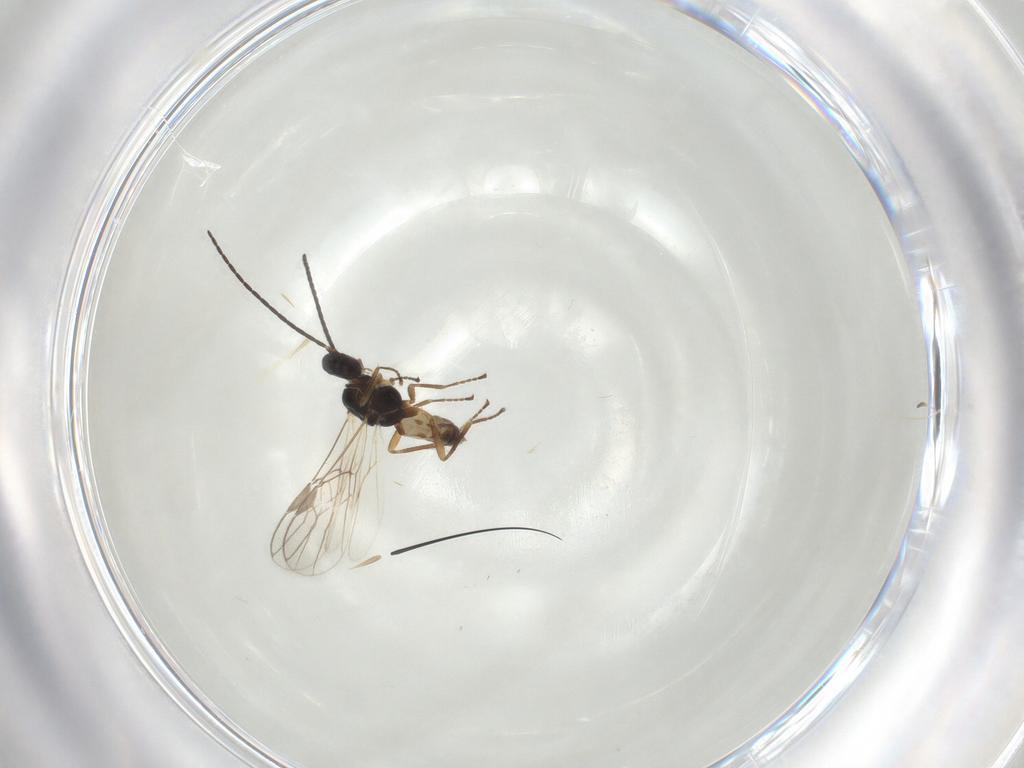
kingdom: Animalia
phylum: Arthropoda
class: Insecta
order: Hymenoptera
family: Braconidae
